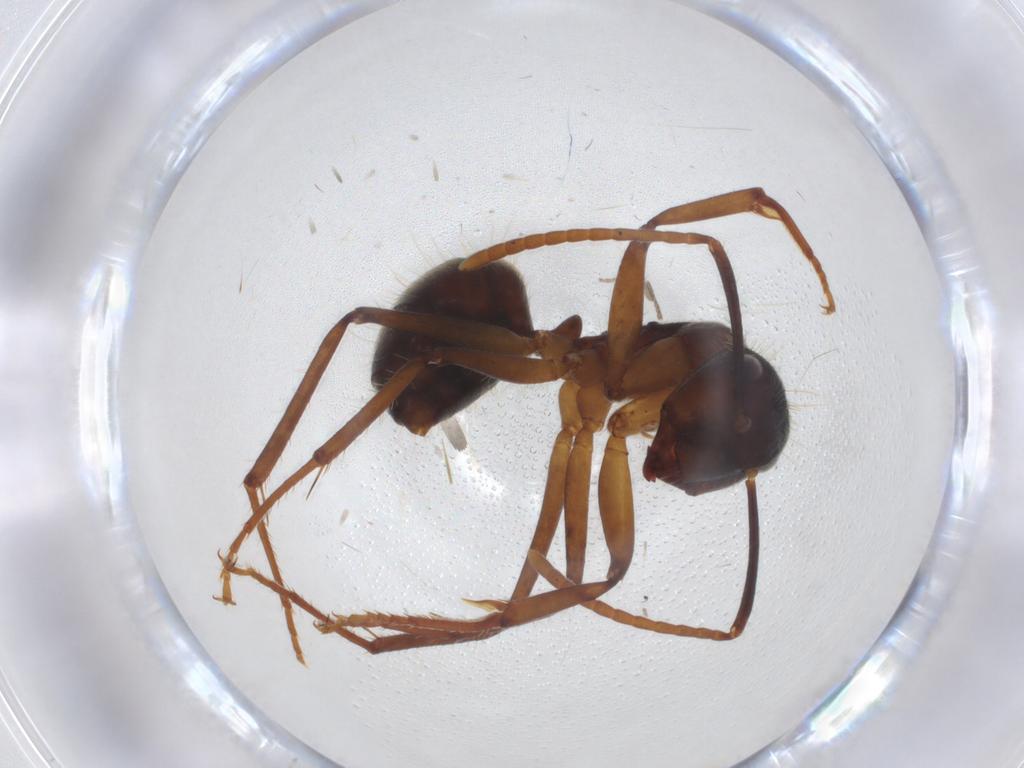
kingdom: Animalia
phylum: Arthropoda
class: Insecta
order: Hymenoptera
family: Formicidae
